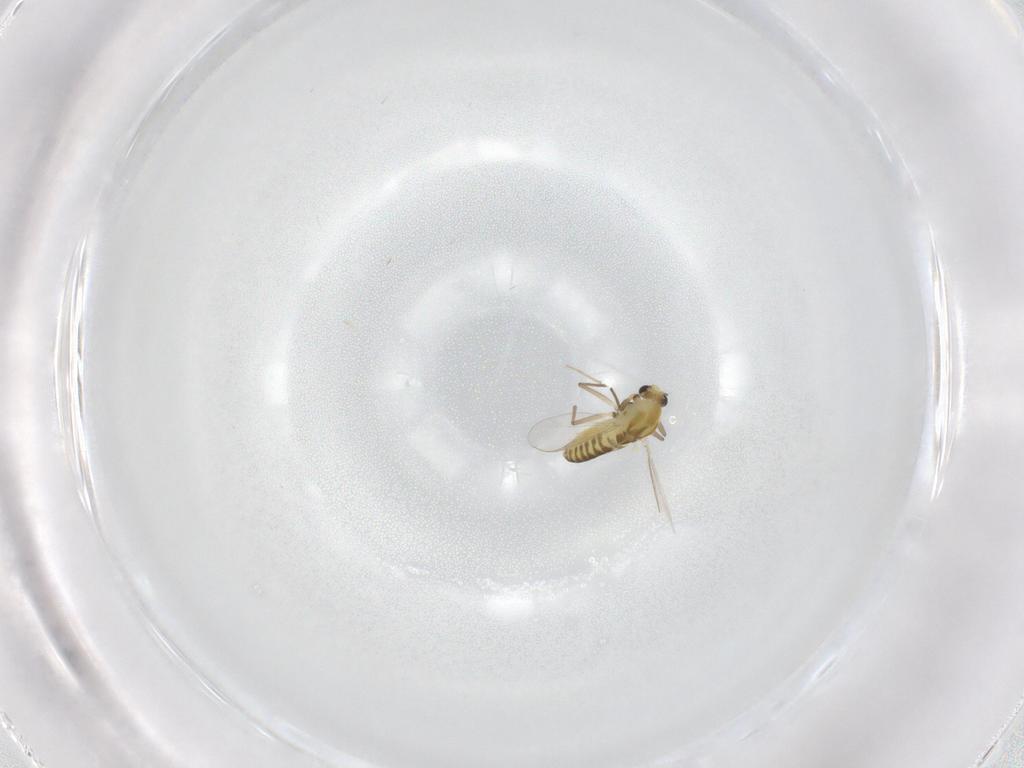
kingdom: Animalia
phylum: Arthropoda
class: Insecta
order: Diptera
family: Chironomidae
